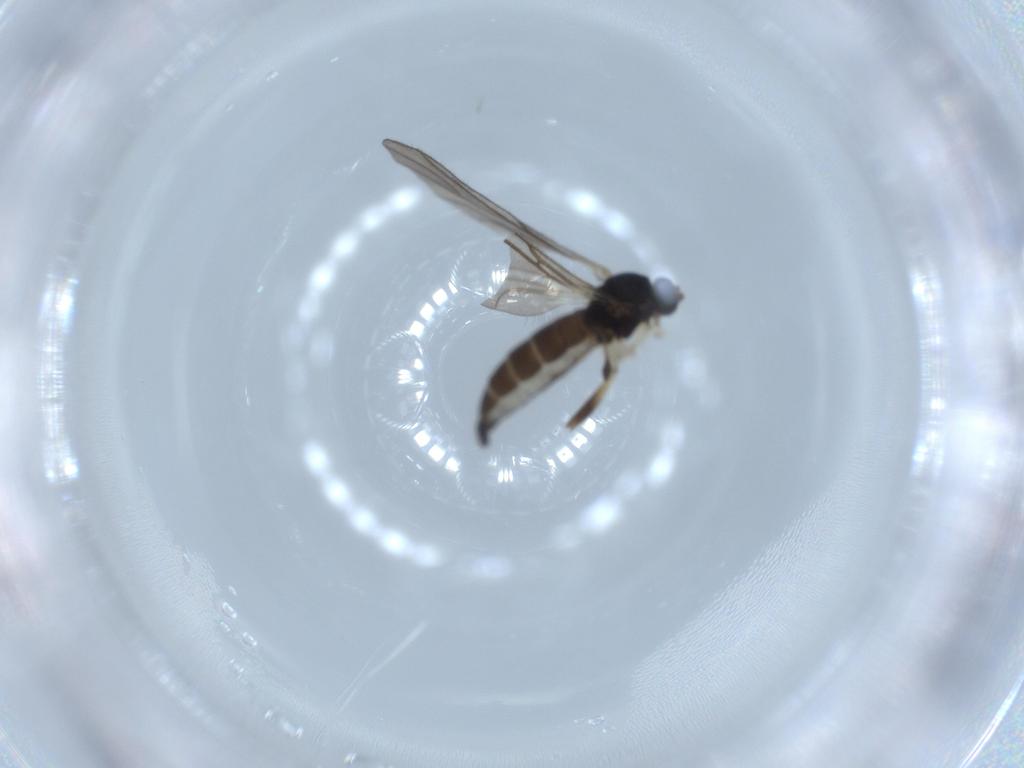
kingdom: Animalia
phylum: Arthropoda
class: Insecta
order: Diptera
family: Sciaridae
